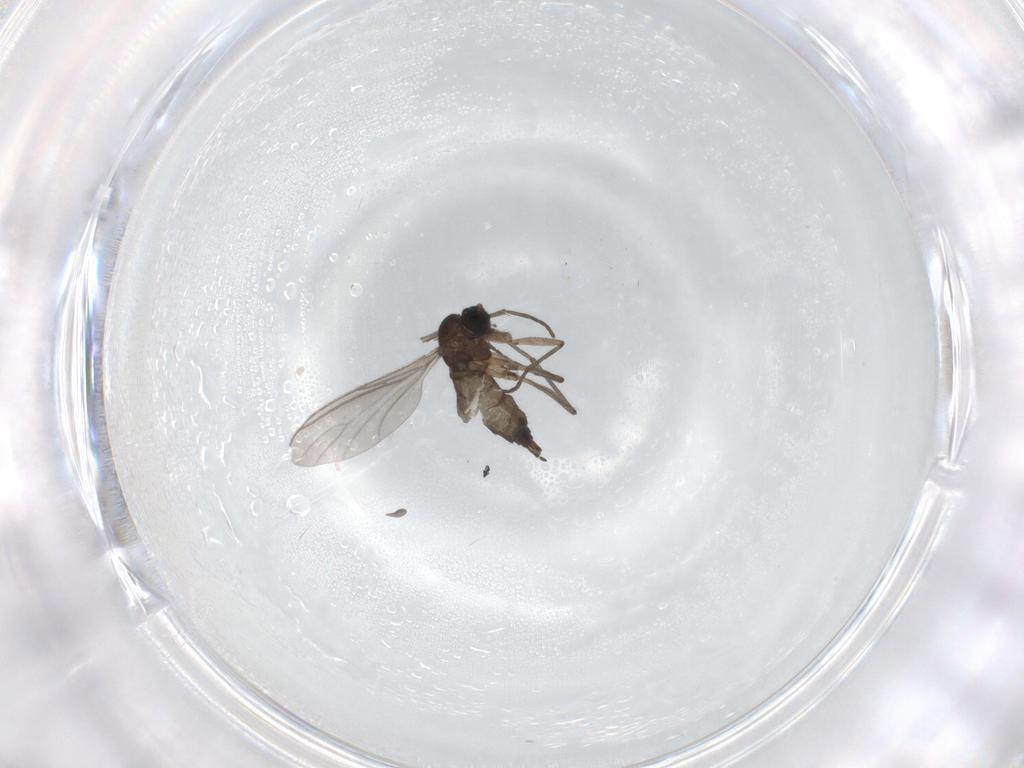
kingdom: Animalia
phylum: Arthropoda
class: Insecta
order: Diptera
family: Sciaridae
